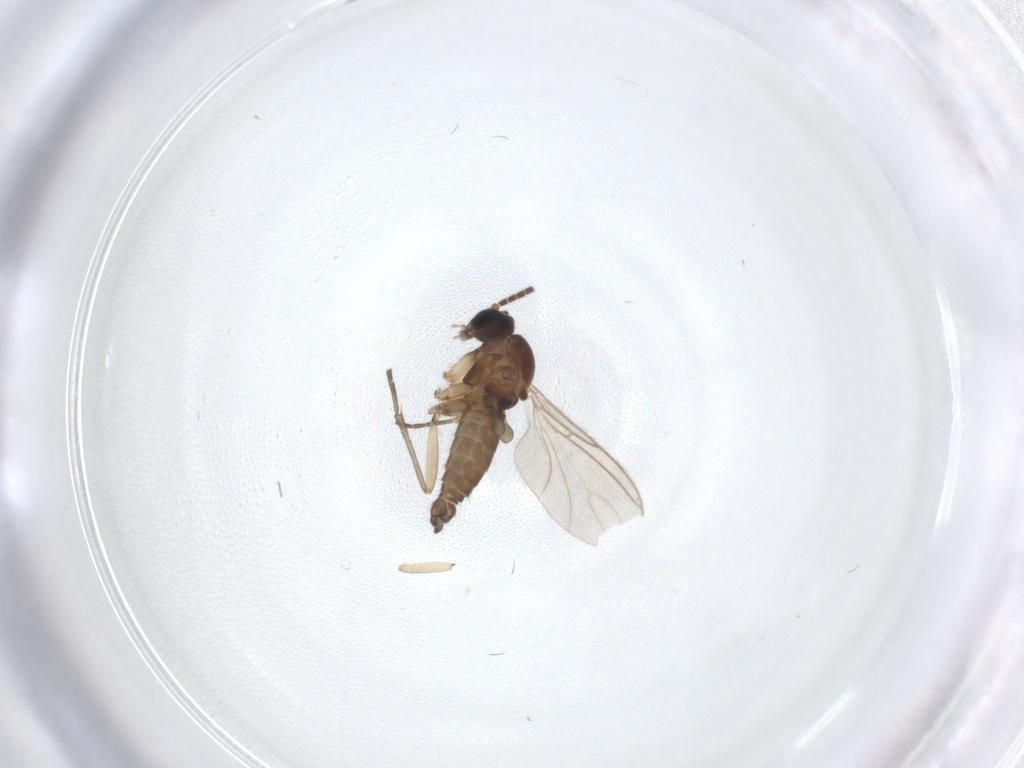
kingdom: Animalia
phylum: Arthropoda
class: Insecta
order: Diptera
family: Sciaridae
